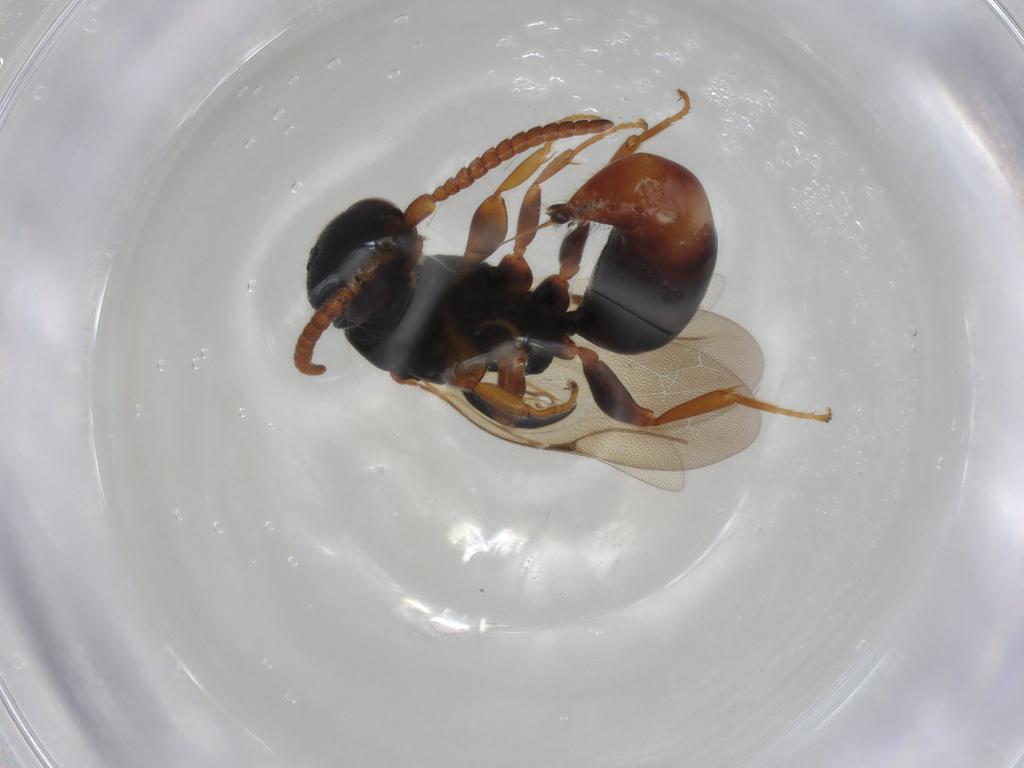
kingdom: Animalia
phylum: Arthropoda
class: Insecta
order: Hymenoptera
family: Bethylidae
